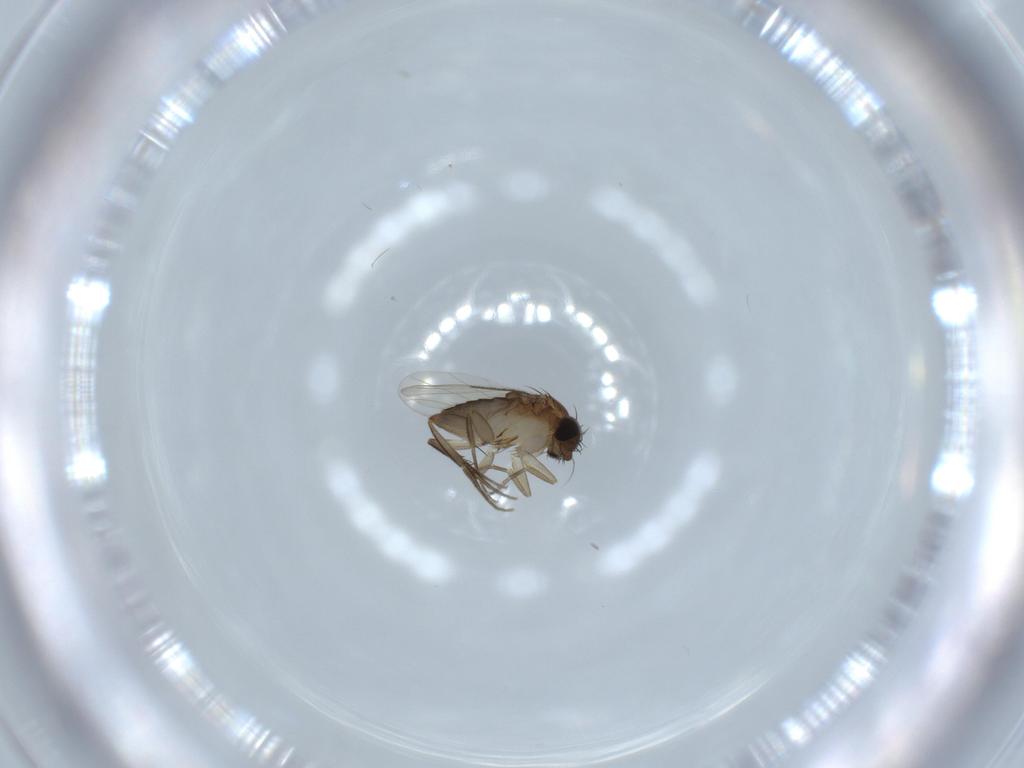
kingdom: Animalia
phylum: Arthropoda
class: Insecta
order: Diptera
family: Phoridae
